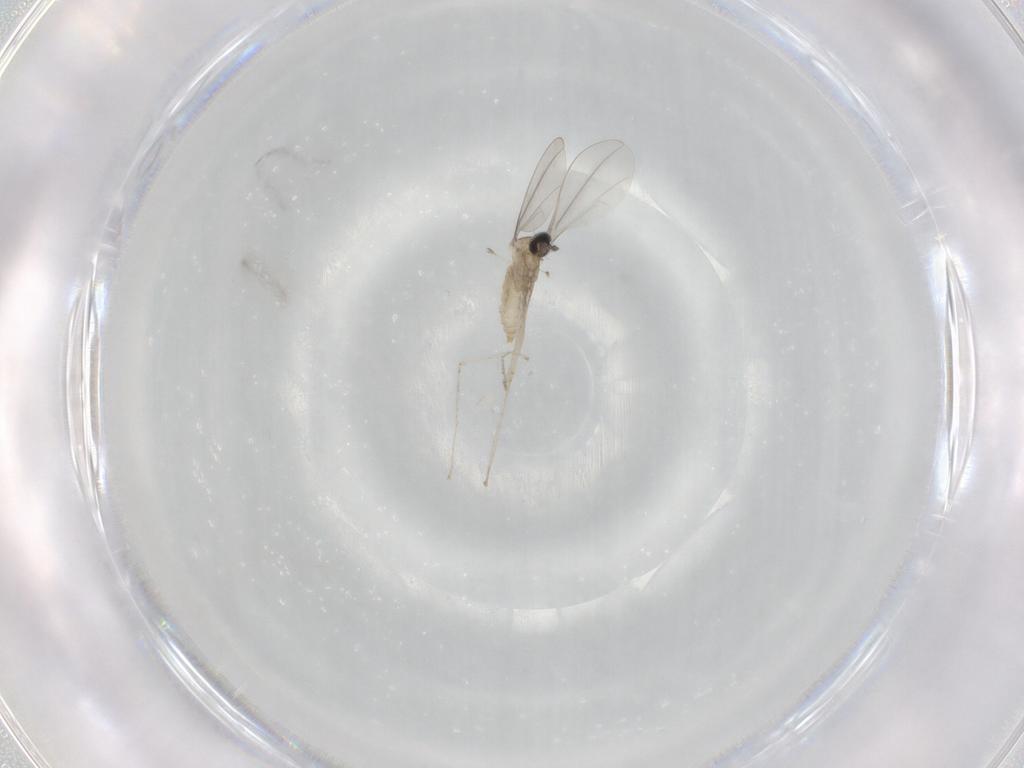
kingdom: Animalia
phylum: Arthropoda
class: Insecta
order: Diptera
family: Cecidomyiidae
